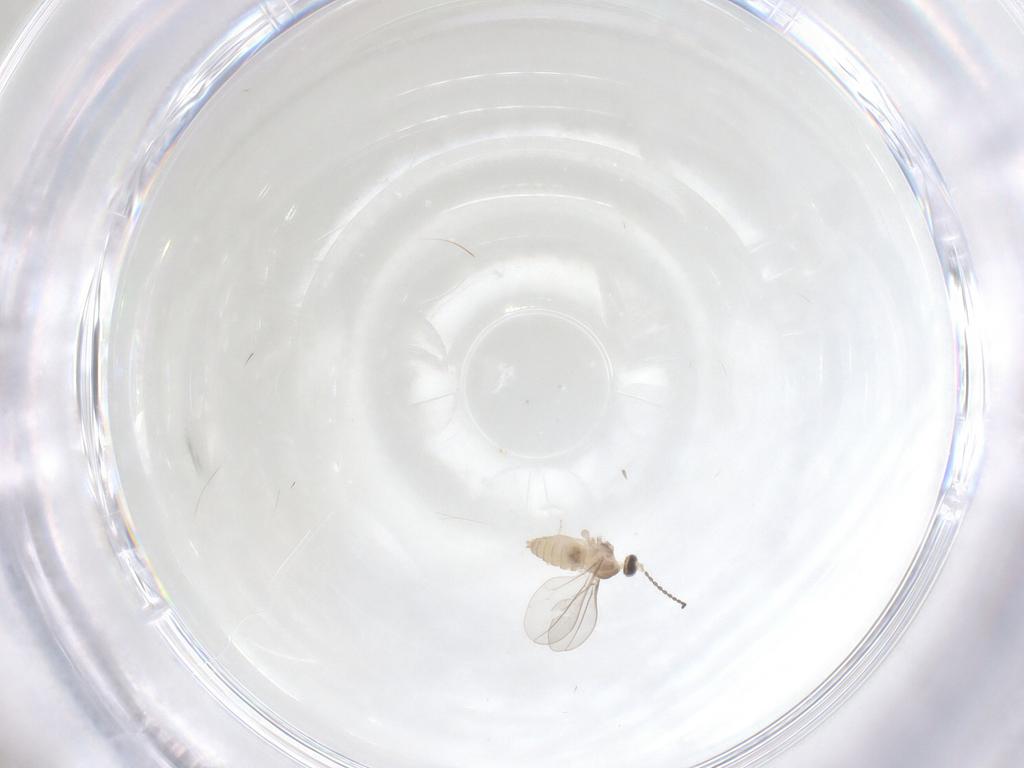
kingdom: Animalia
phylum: Arthropoda
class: Insecta
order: Diptera
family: Cecidomyiidae
